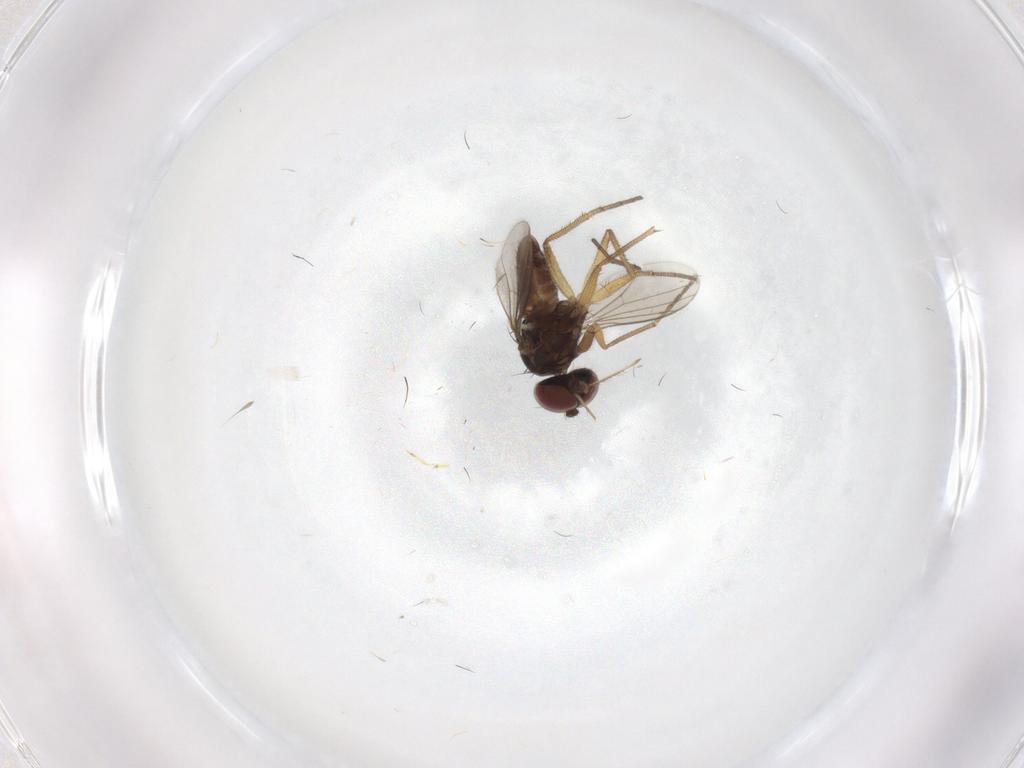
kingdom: Animalia
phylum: Arthropoda
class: Insecta
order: Diptera
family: Dolichopodidae
